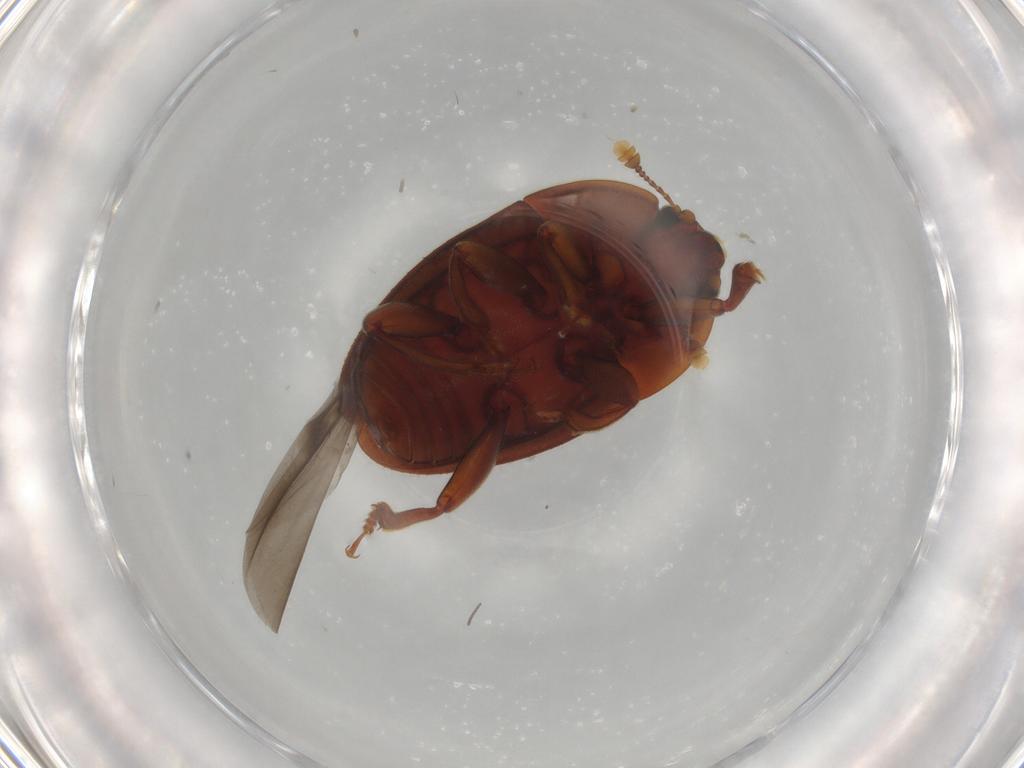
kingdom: Animalia
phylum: Arthropoda
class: Insecta
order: Coleoptera
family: Nitidulidae
